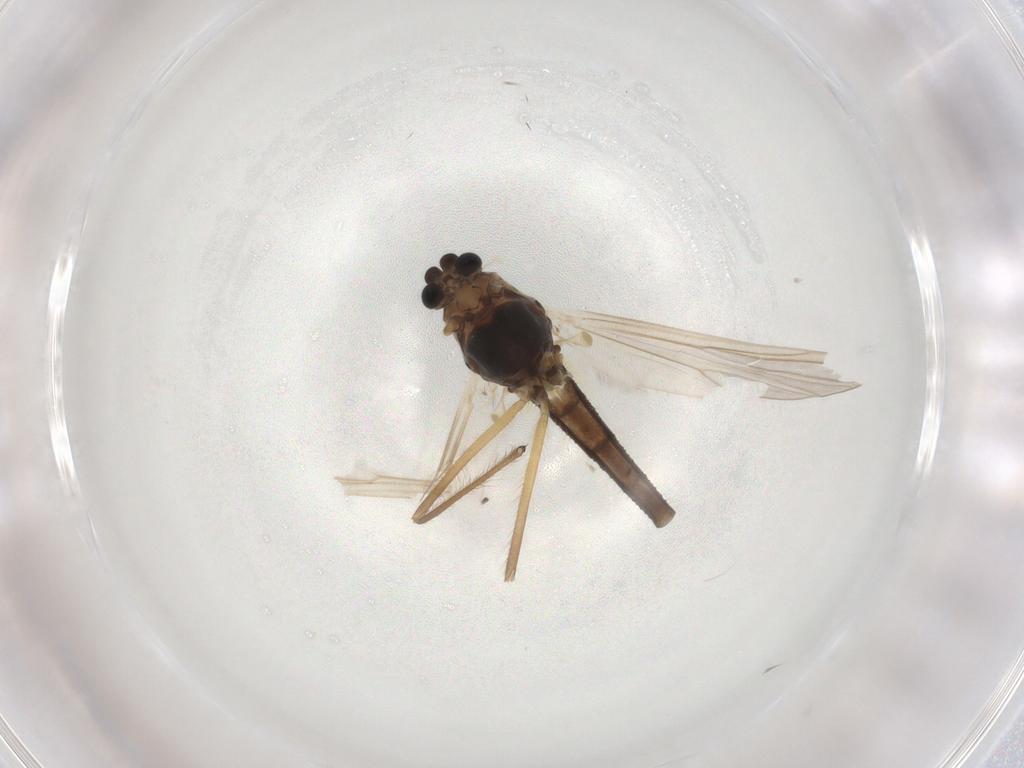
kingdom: Animalia
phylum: Arthropoda
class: Insecta
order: Diptera
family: Chironomidae
